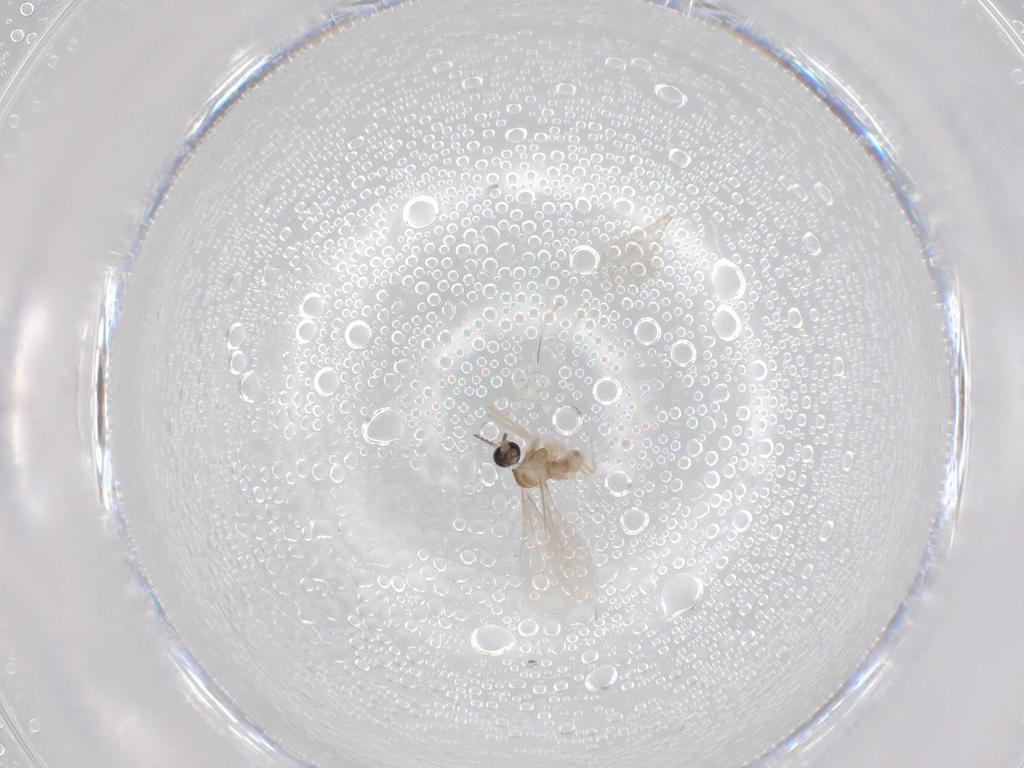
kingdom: Animalia
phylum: Arthropoda
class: Insecta
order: Diptera
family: Cecidomyiidae
